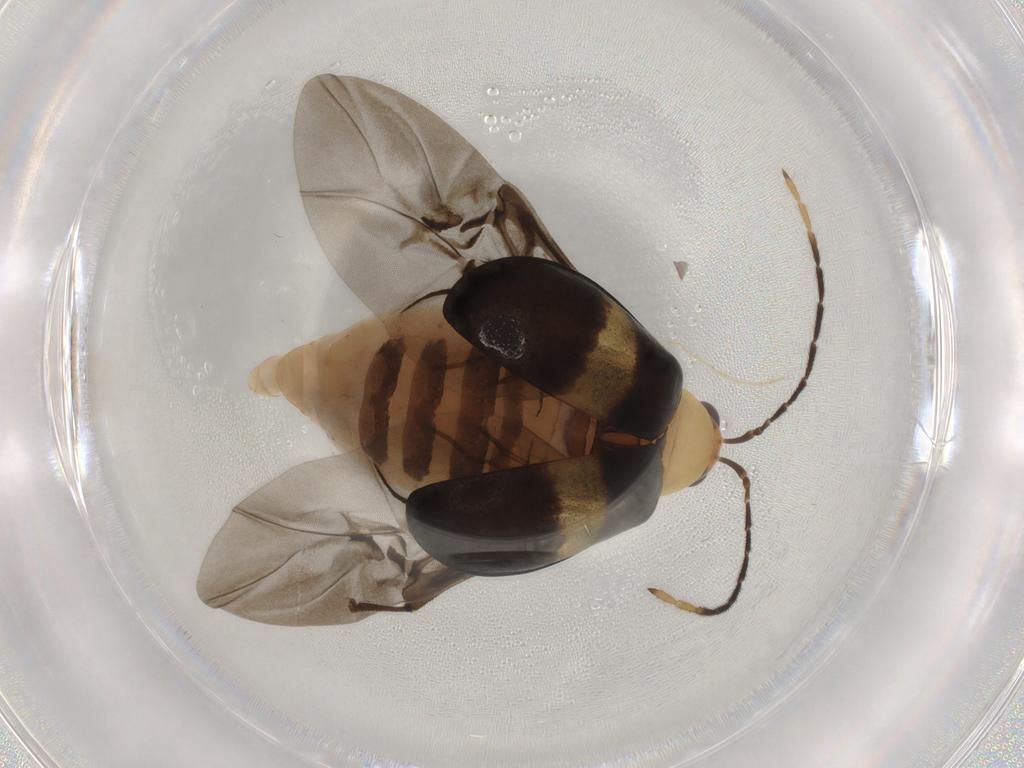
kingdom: Animalia
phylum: Arthropoda
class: Insecta
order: Coleoptera
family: Chrysomelidae
